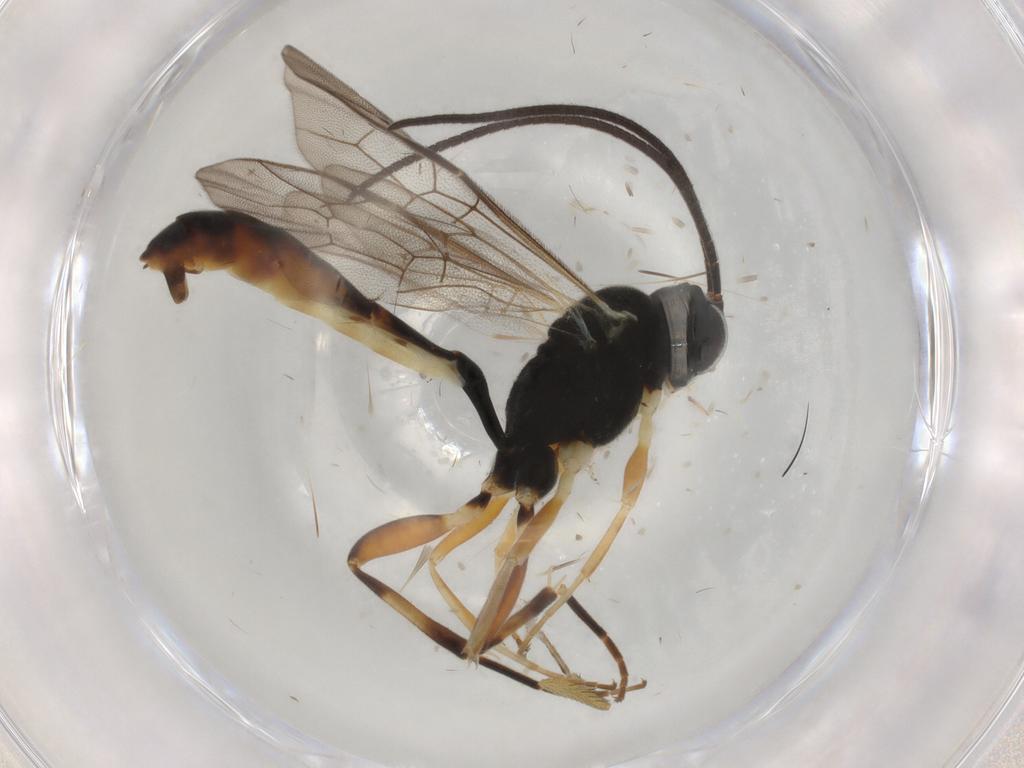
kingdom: Animalia
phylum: Arthropoda
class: Insecta
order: Hymenoptera
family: Ichneumonidae
